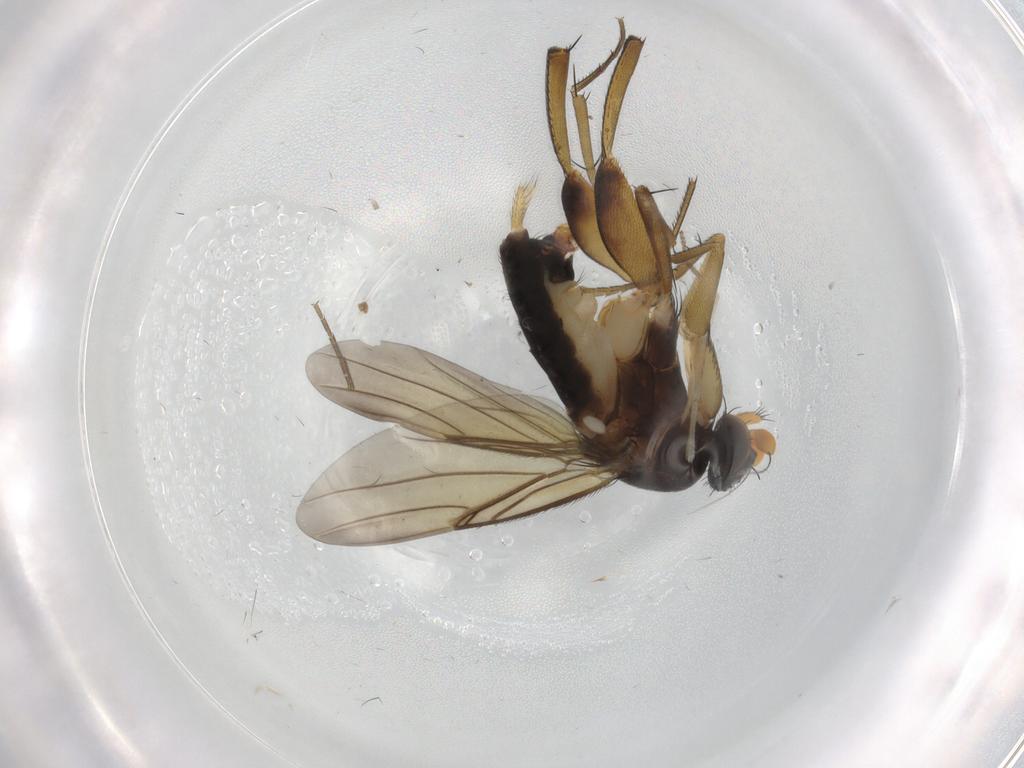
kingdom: Animalia
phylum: Arthropoda
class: Insecta
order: Diptera
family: Phoridae
